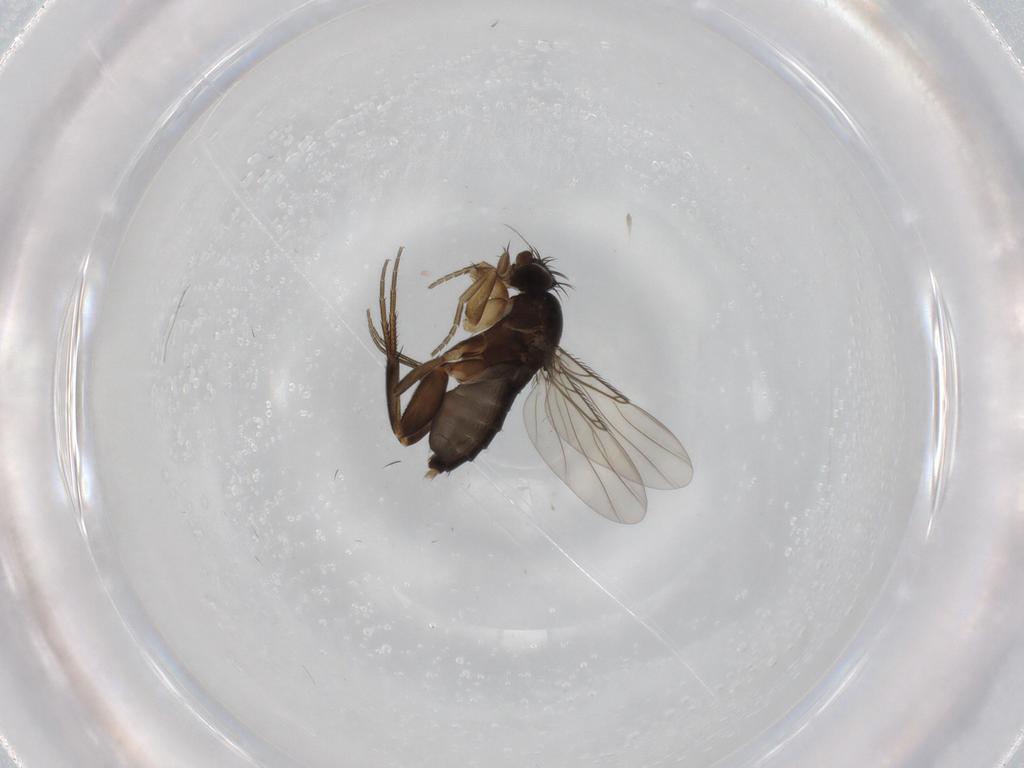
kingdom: Animalia
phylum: Arthropoda
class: Insecta
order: Diptera
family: Phoridae
